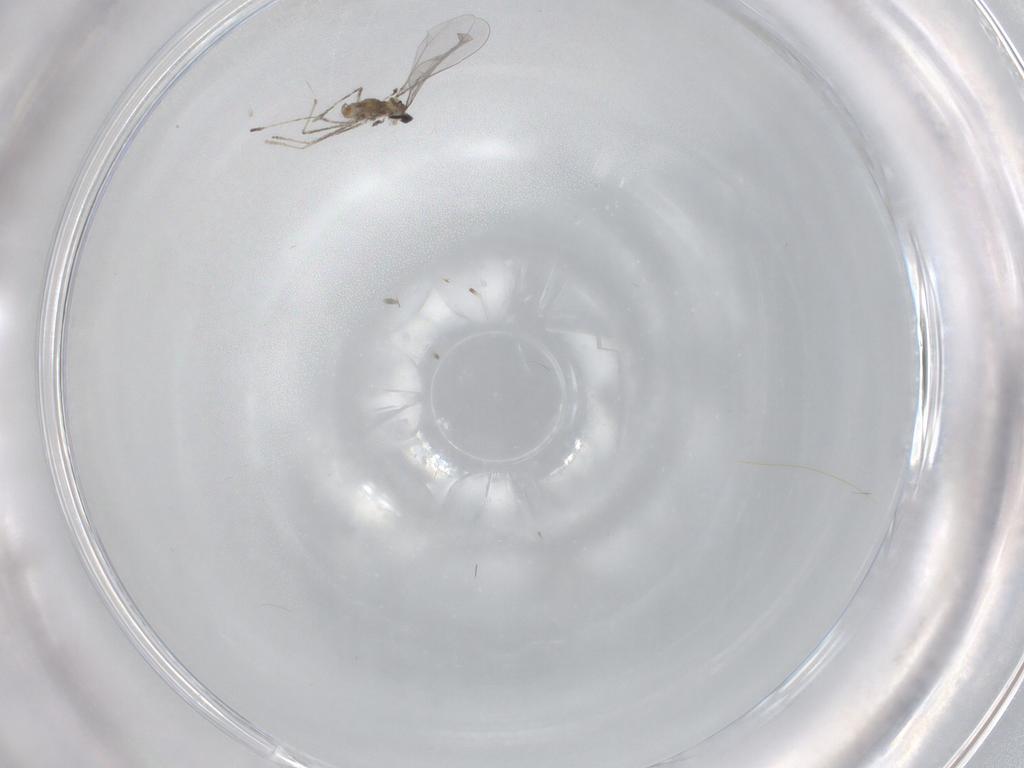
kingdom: Animalia
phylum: Arthropoda
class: Insecta
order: Diptera
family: Cecidomyiidae
